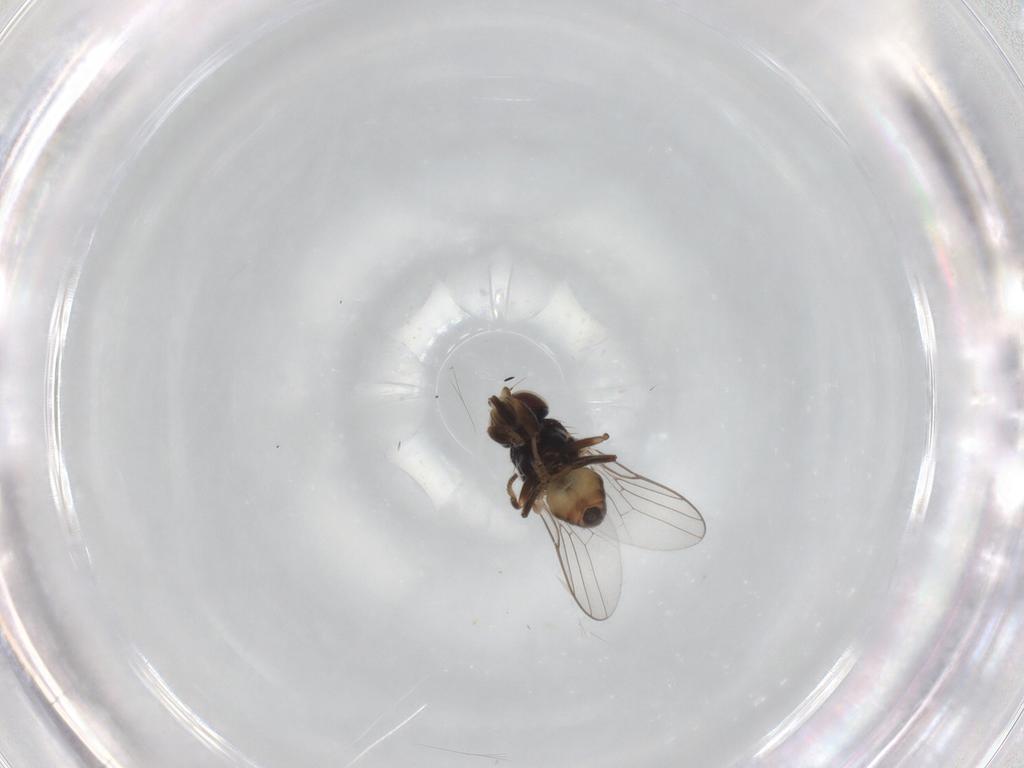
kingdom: Animalia
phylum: Arthropoda
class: Insecta
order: Diptera
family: Chloropidae
